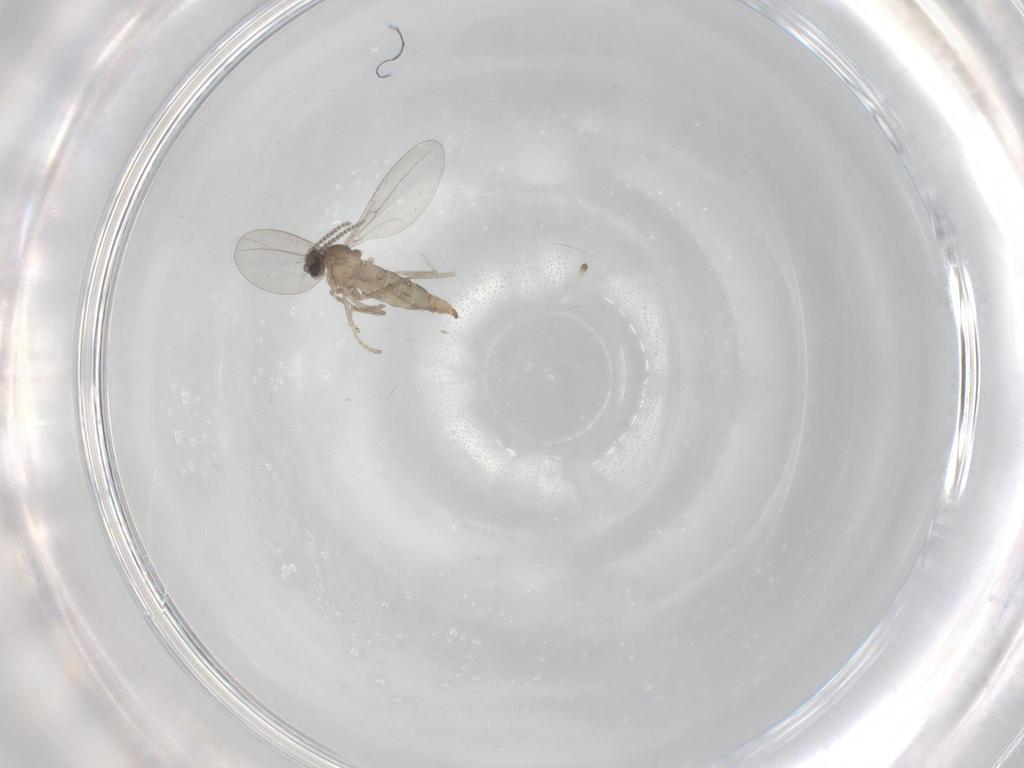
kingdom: Animalia
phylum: Arthropoda
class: Insecta
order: Diptera
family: Cecidomyiidae
